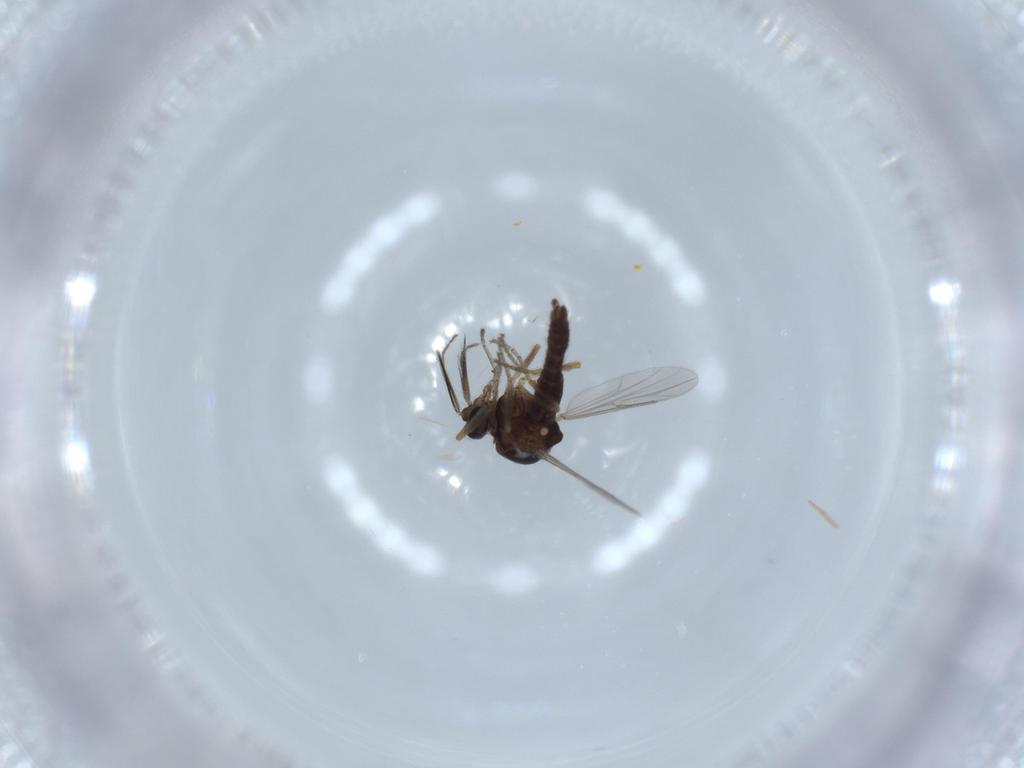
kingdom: Animalia
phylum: Arthropoda
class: Insecta
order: Diptera
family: Ceratopogonidae
